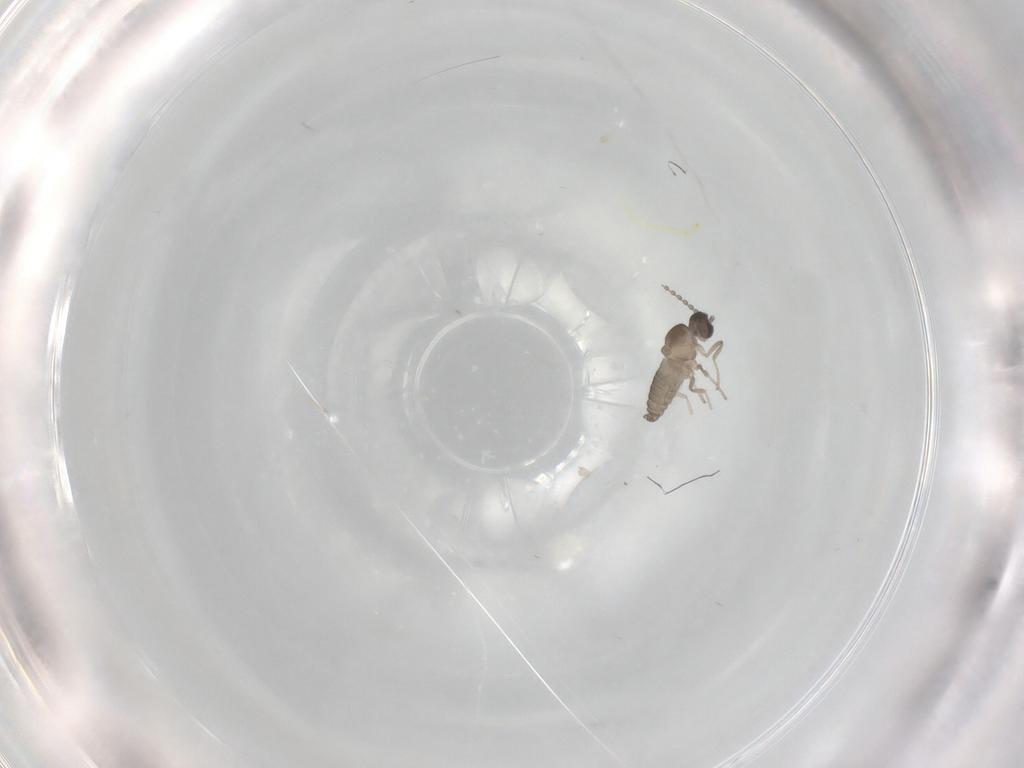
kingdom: Animalia
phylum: Arthropoda
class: Insecta
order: Diptera
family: Cecidomyiidae
